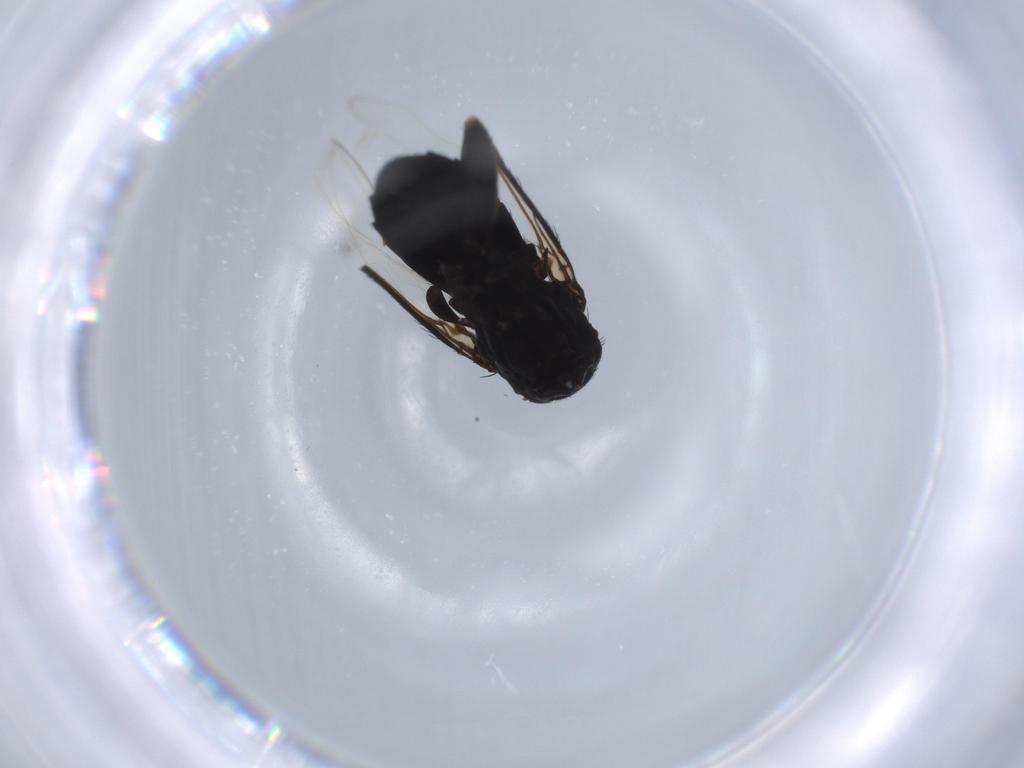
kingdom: Animalia
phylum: Arthropoda
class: Insecta
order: Diptera
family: Phoridae
